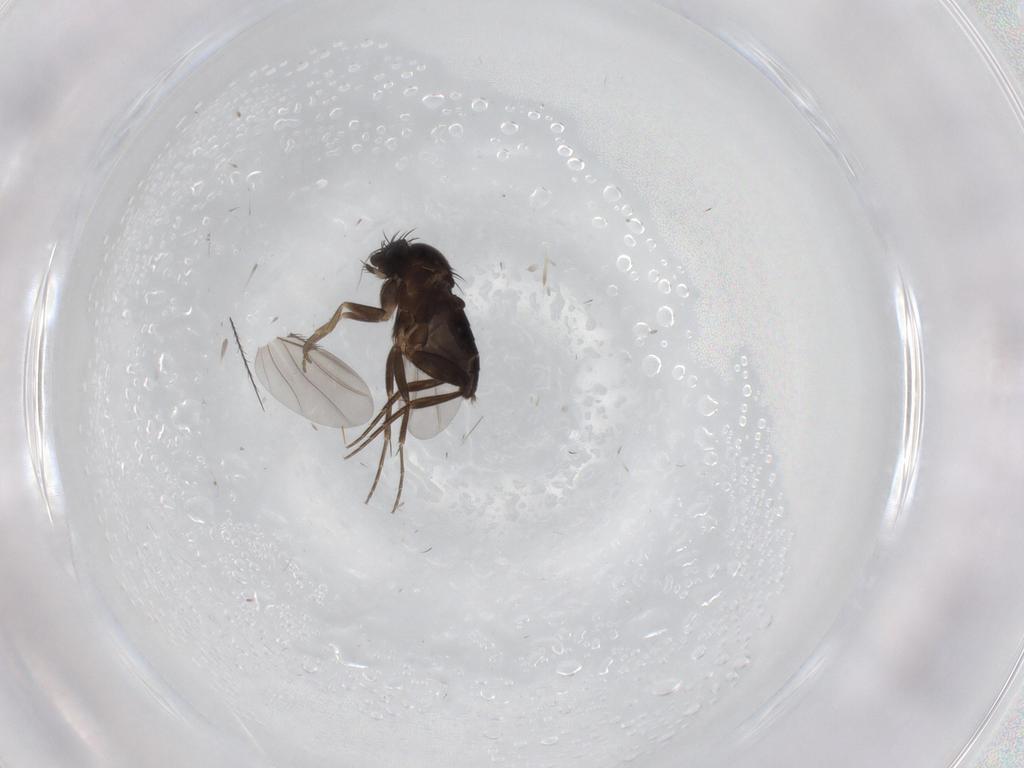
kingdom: Animalia
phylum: Arthropoda
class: Insecta
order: Diptera
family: Phoridae
